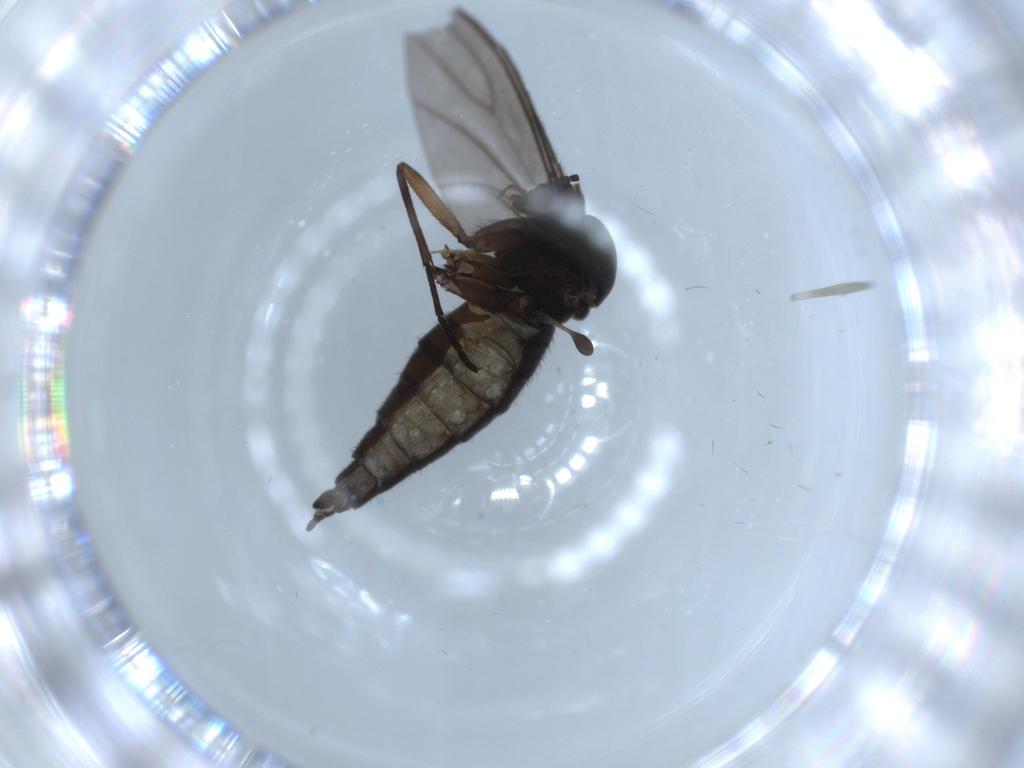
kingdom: Animalia
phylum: Arthropoda
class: Insecta
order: Diptera
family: Sciaridae
